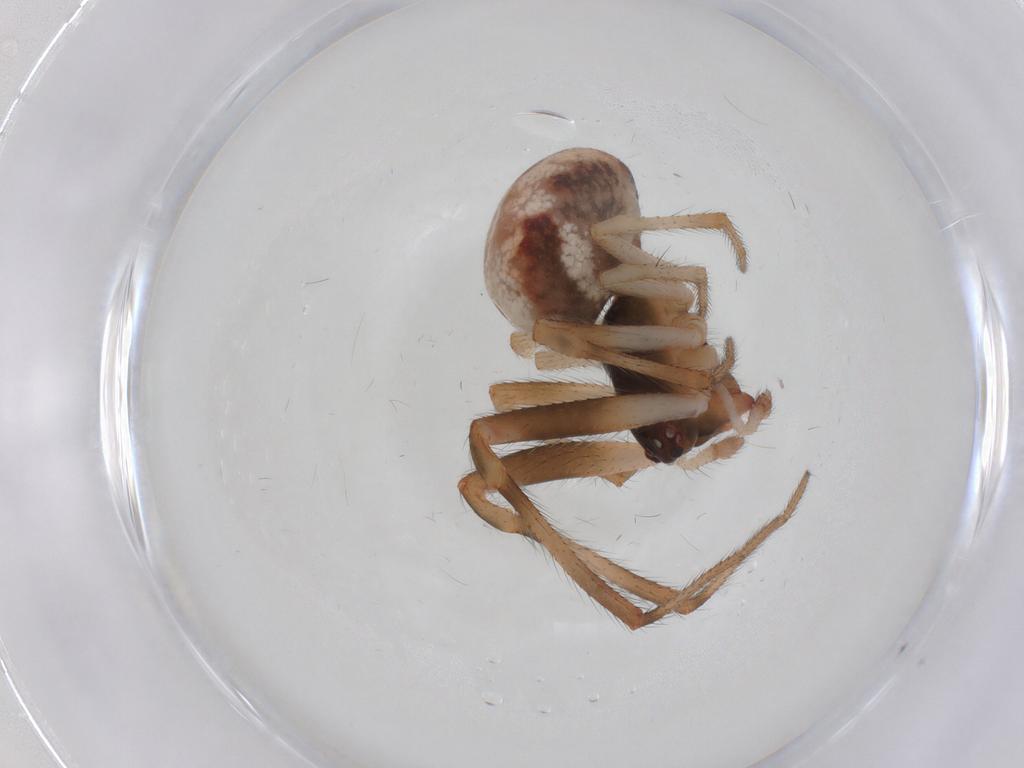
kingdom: Animalia
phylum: Arthropoda
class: Arachnida
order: Araneae
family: Theridiidae
